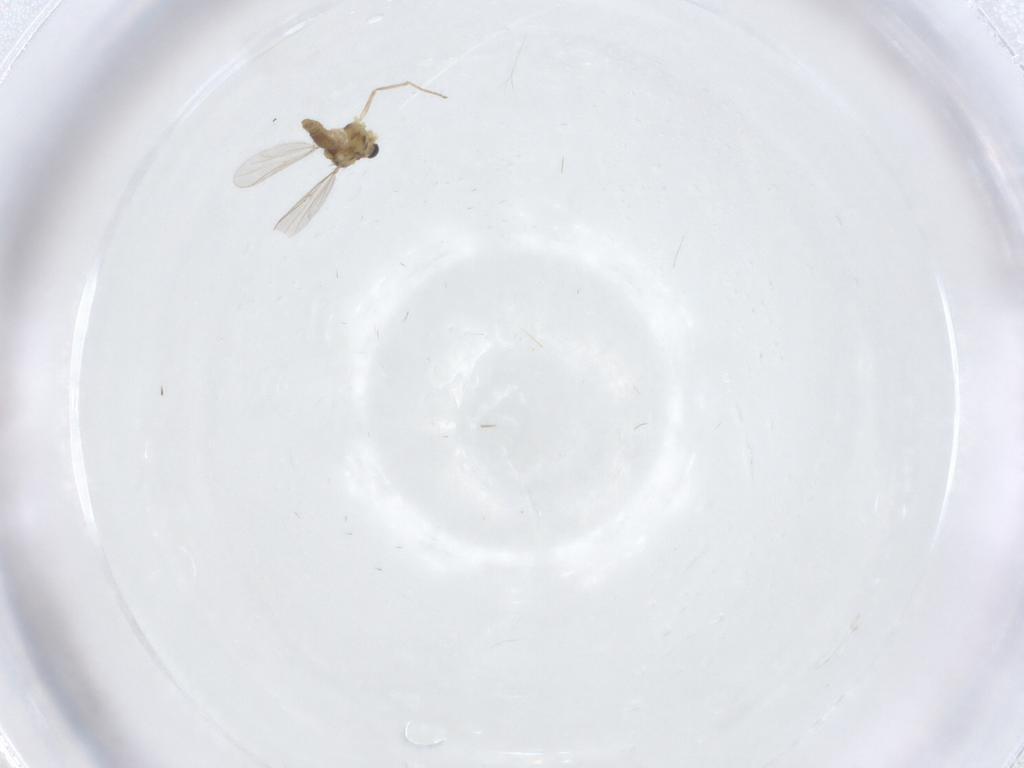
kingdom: Animalia
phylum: Arthropoda
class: Insecta
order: Diptera
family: Chironomidae
